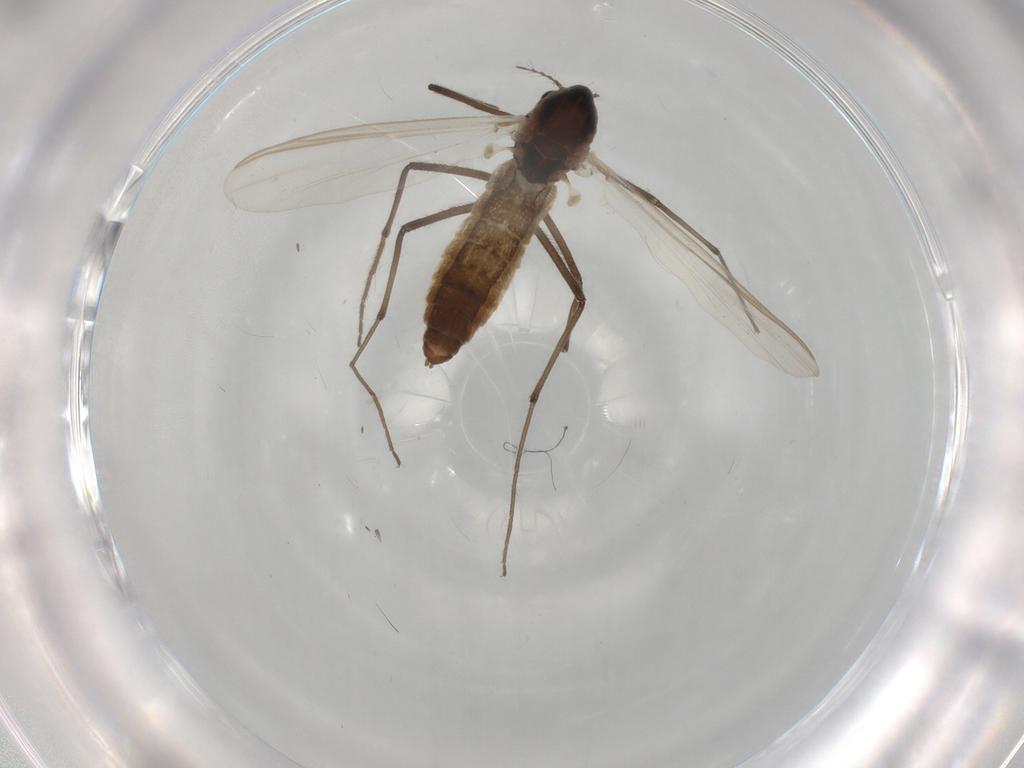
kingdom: Animalia
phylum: Arthropoda
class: Insecta
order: Diptera
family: Chironomidae
